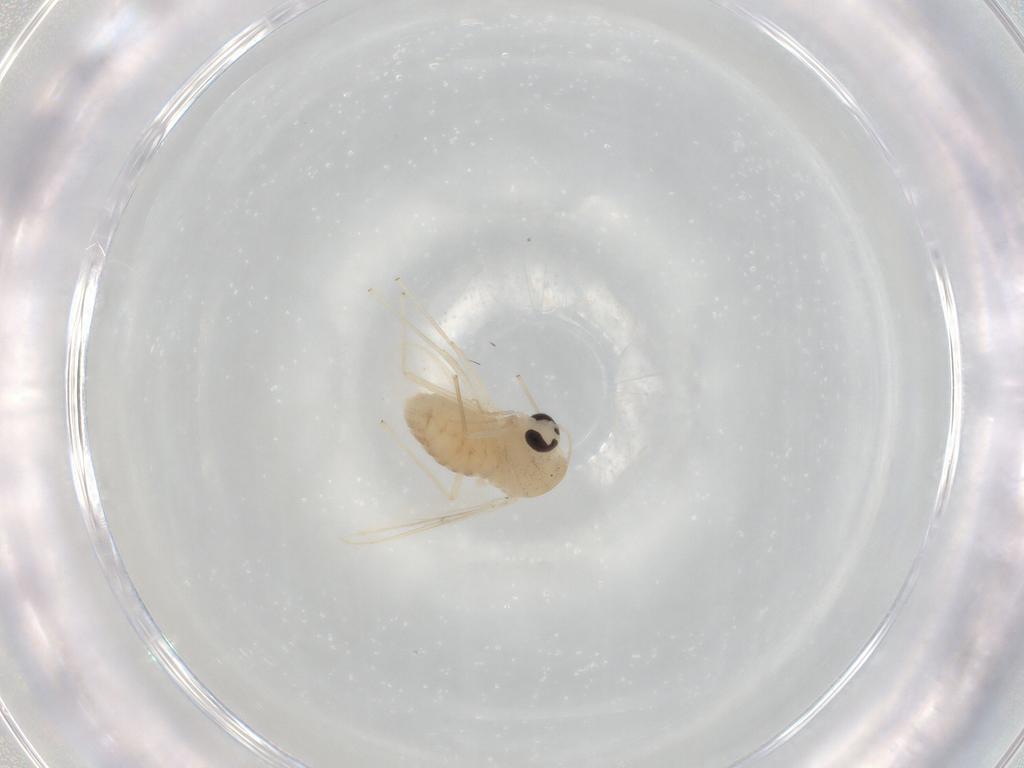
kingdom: Animalia
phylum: Arthropoda
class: Insecta
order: Diptera
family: Chironomidae
